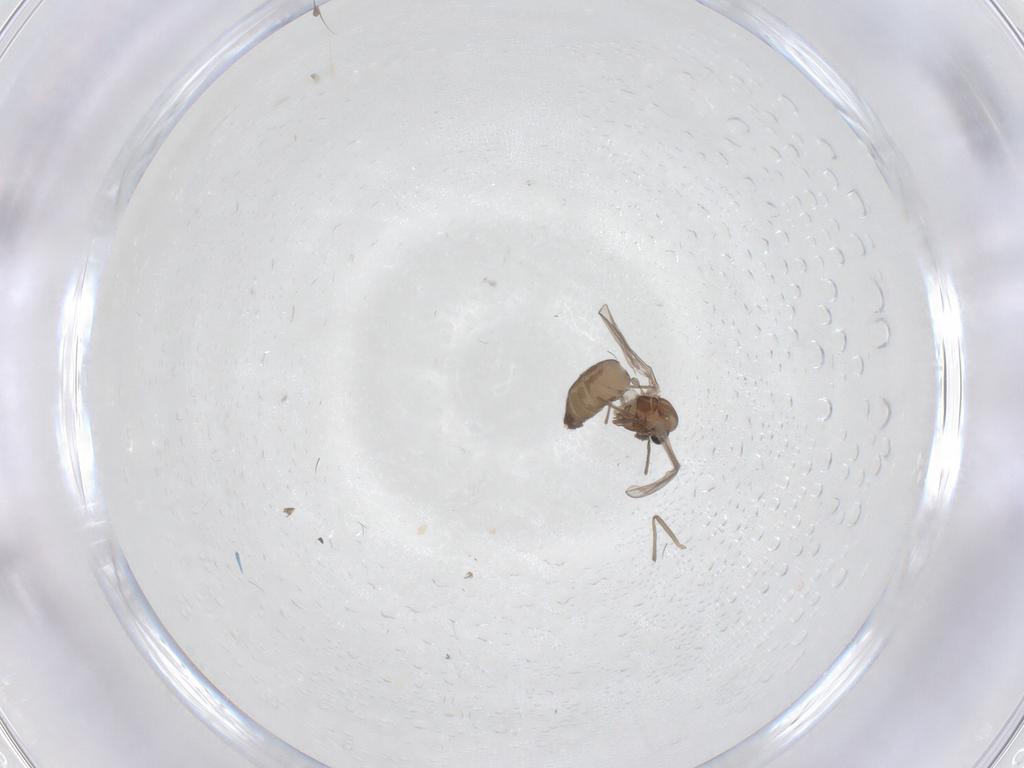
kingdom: Animalia
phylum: Arthropoda
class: Insecta
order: Diptera
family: Chironomidae
